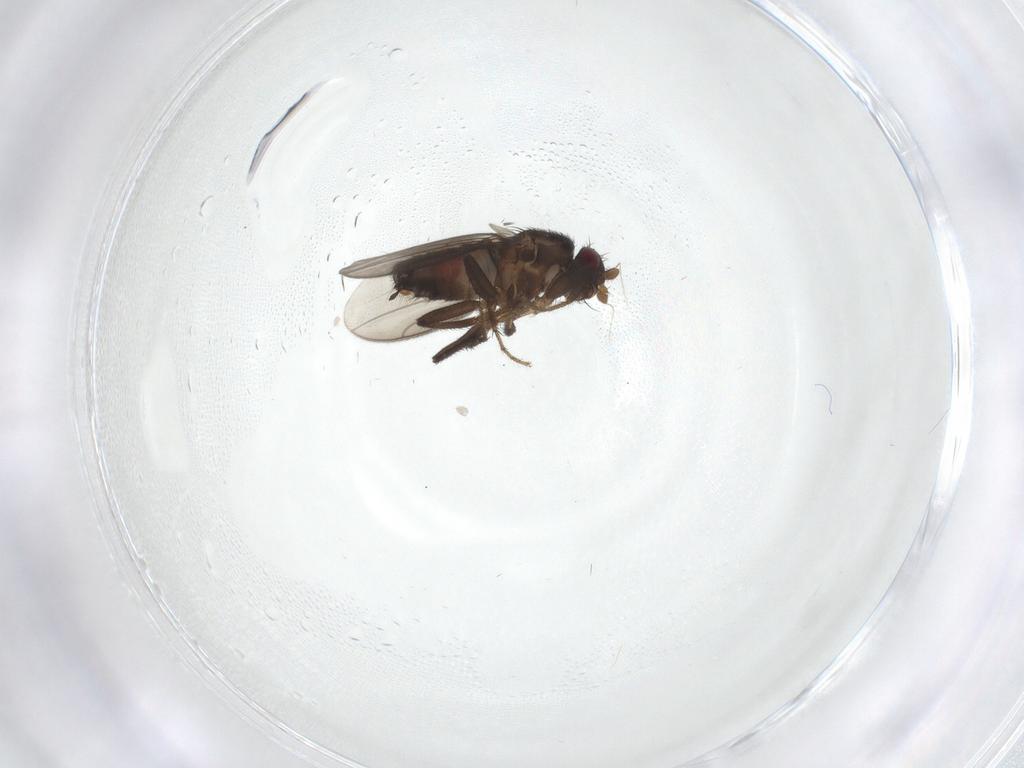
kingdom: Animalia
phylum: Arthropoda
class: Insecta
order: Diptera
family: Sphaeroceridae
